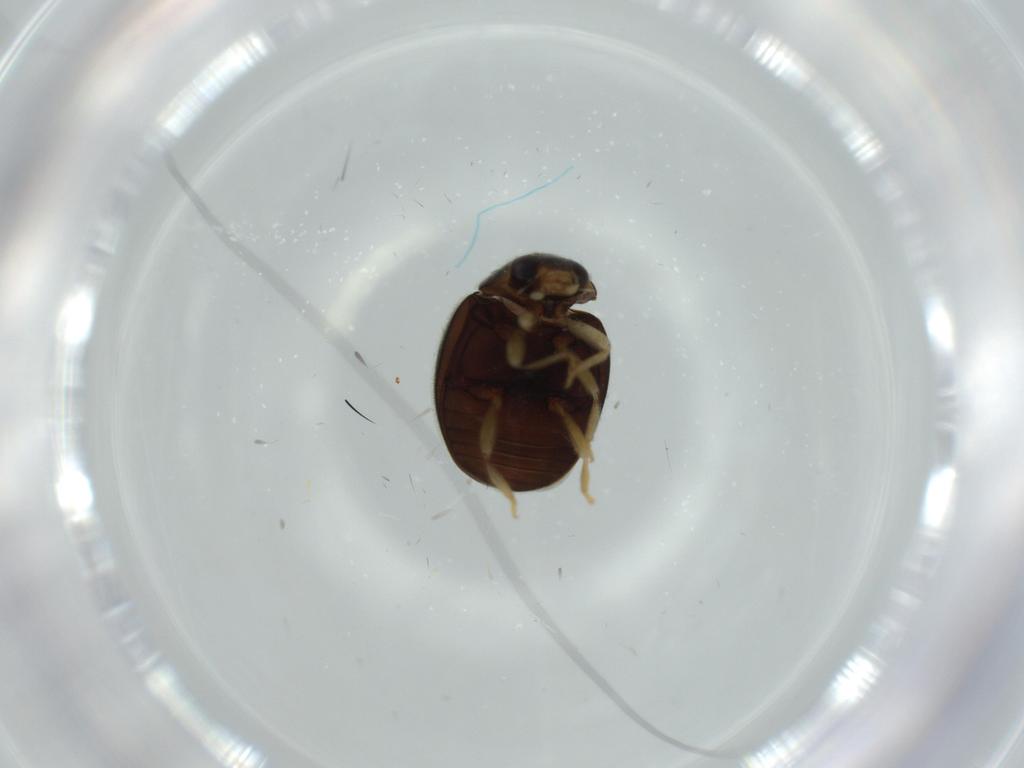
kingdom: Animalia
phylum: Arthropoda
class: Insecta
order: Coleoptera
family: Coccinellidae
